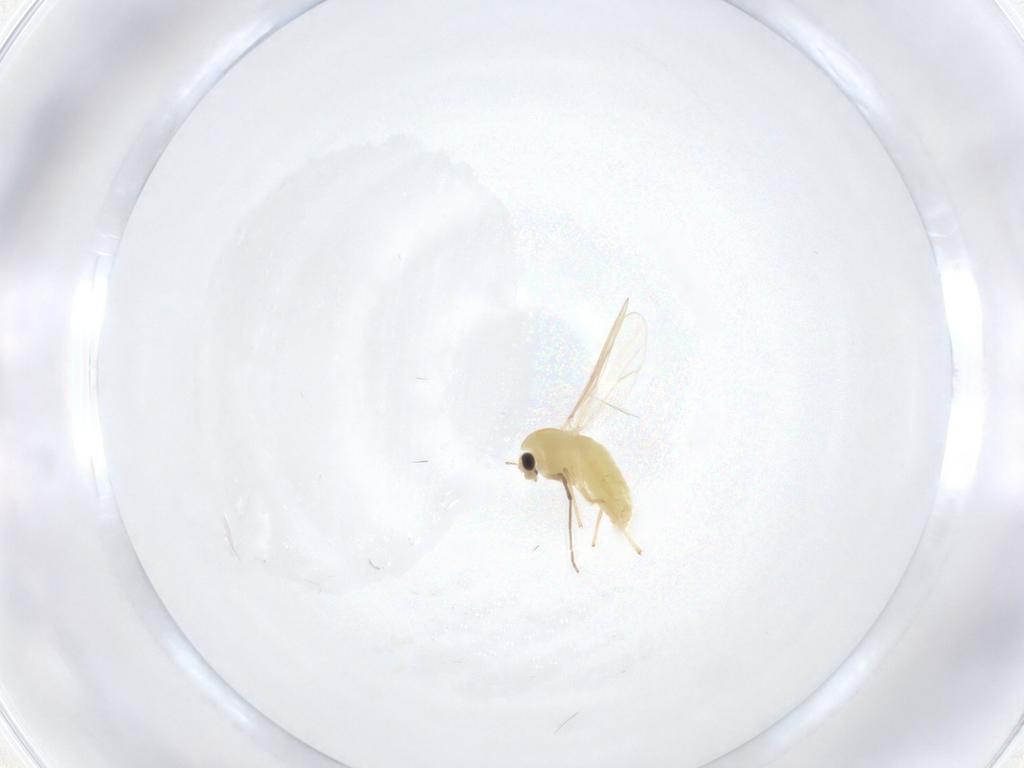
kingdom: Animalia
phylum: Arthropoda
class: Insecta
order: Diptera
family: Chironomidae
